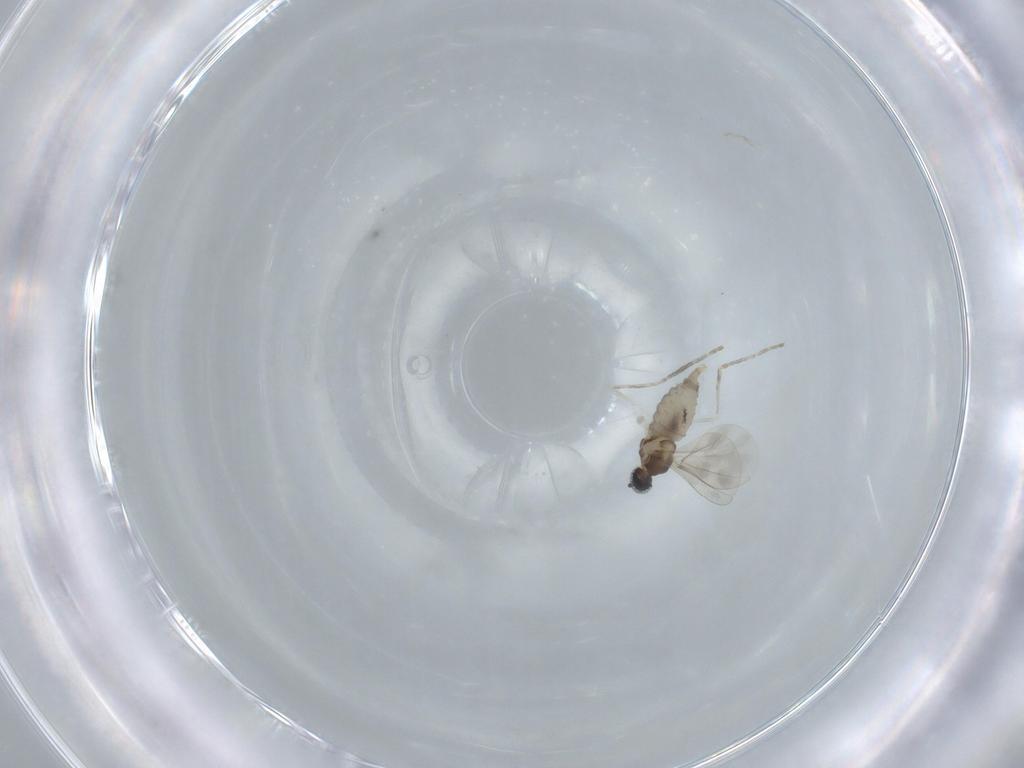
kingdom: Animalia
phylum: Arthropoda
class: Insecta
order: Diptera
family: Cecidomyiidae
